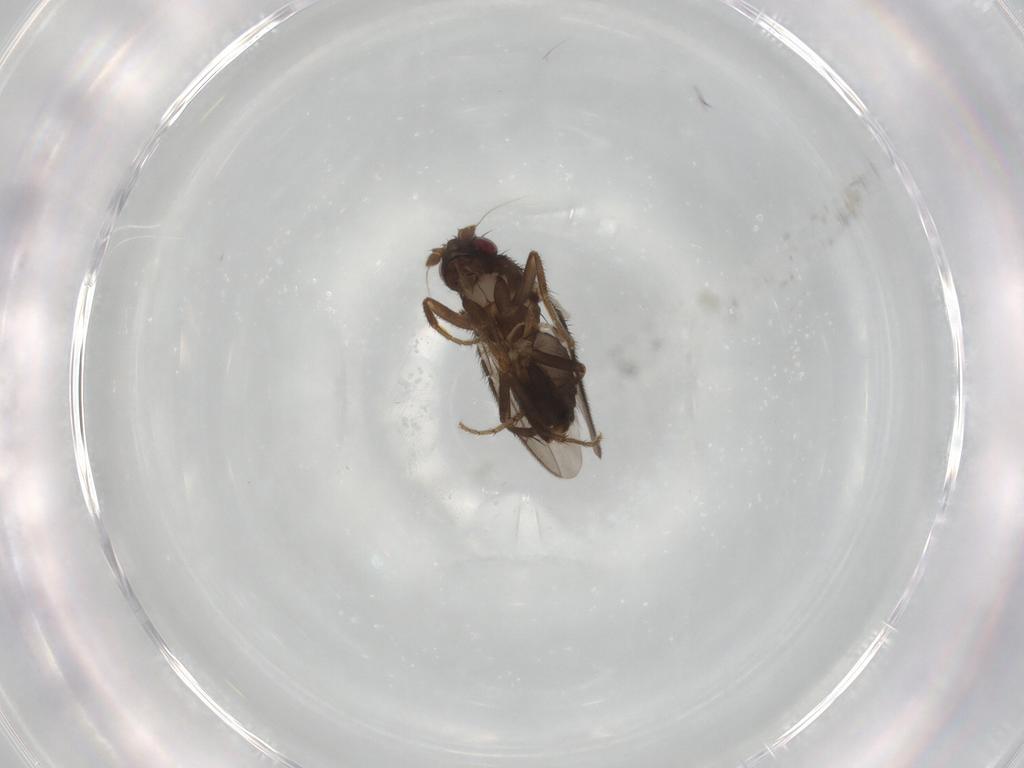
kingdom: Animalia
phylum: Arthropoda
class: Insecta
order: Diptera
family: Sphaeroceridae
